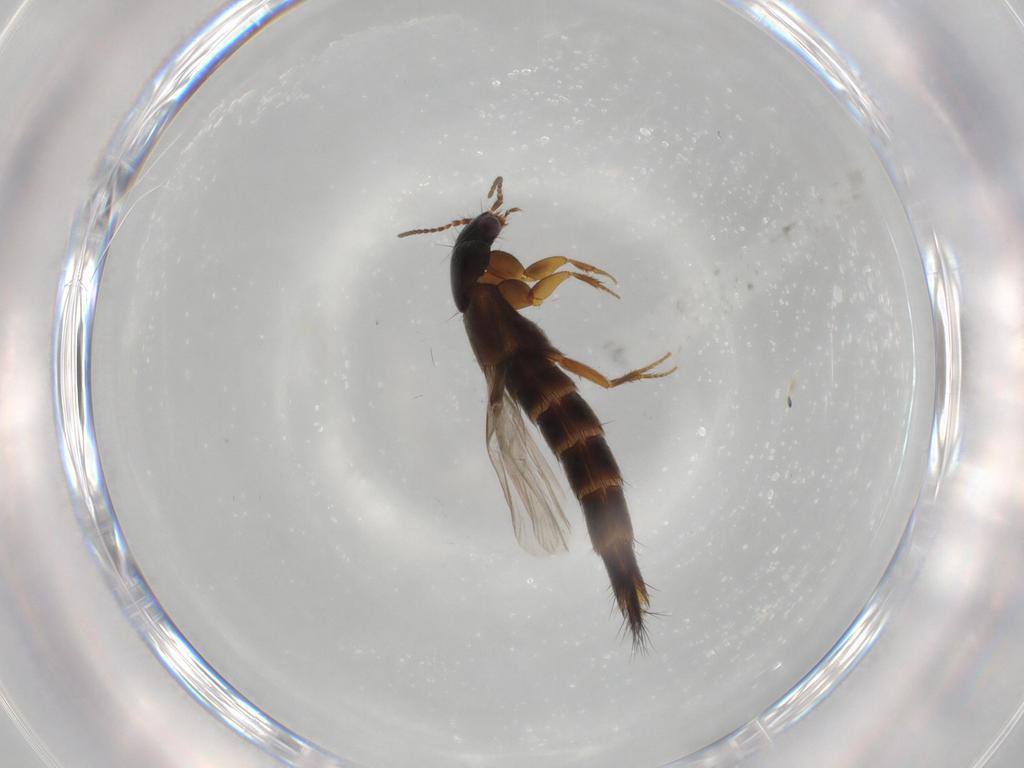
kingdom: Animalia
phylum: Arthropoda
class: Insecta
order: Coleoptera
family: Staphylinidae
